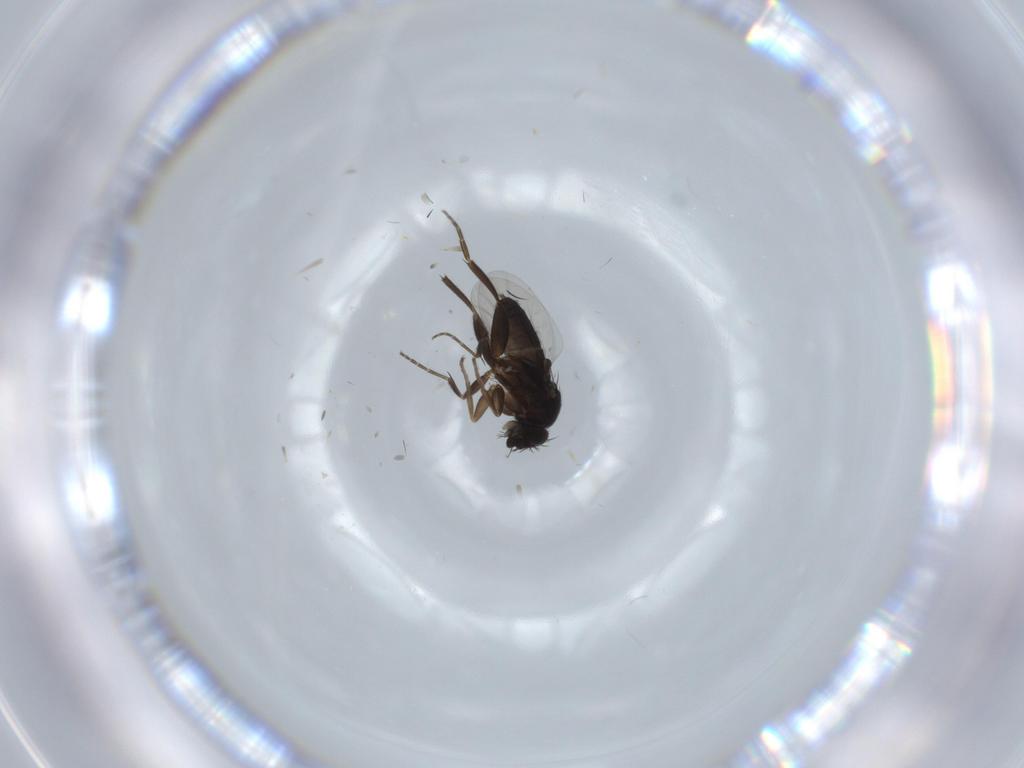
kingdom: Animalia
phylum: Arthropoda
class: Insecta
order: Diptera
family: Phoridae
